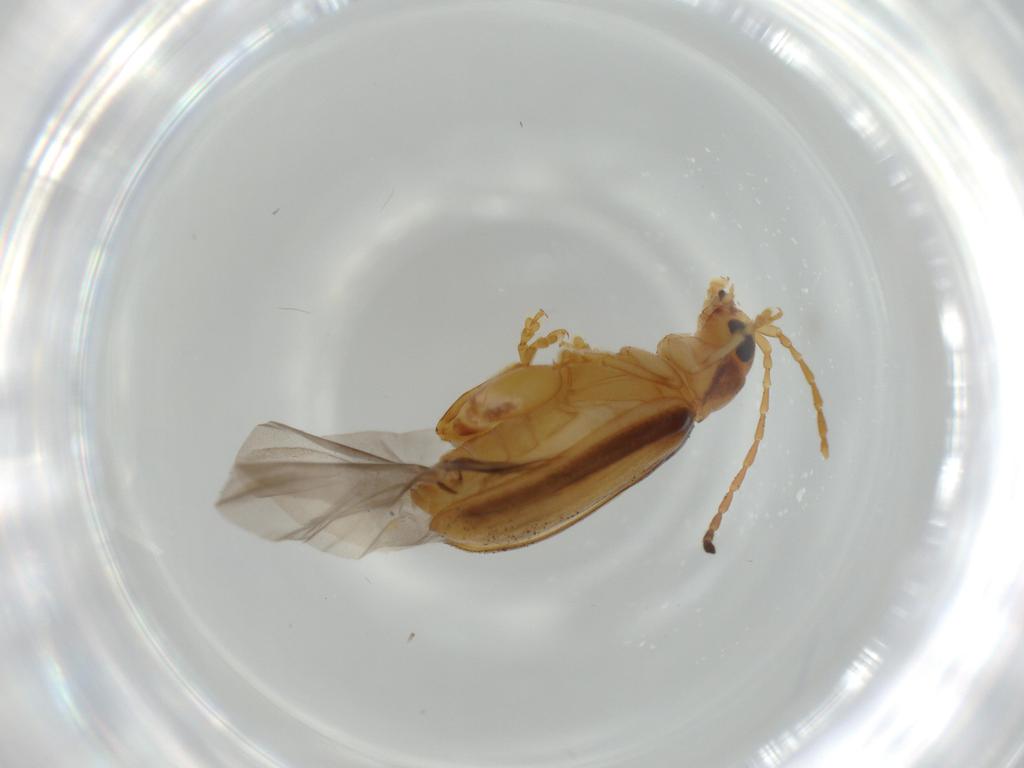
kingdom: Animalia
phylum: Arthropoda
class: Insecta
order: Coleoptera
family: Chrysomelidae
